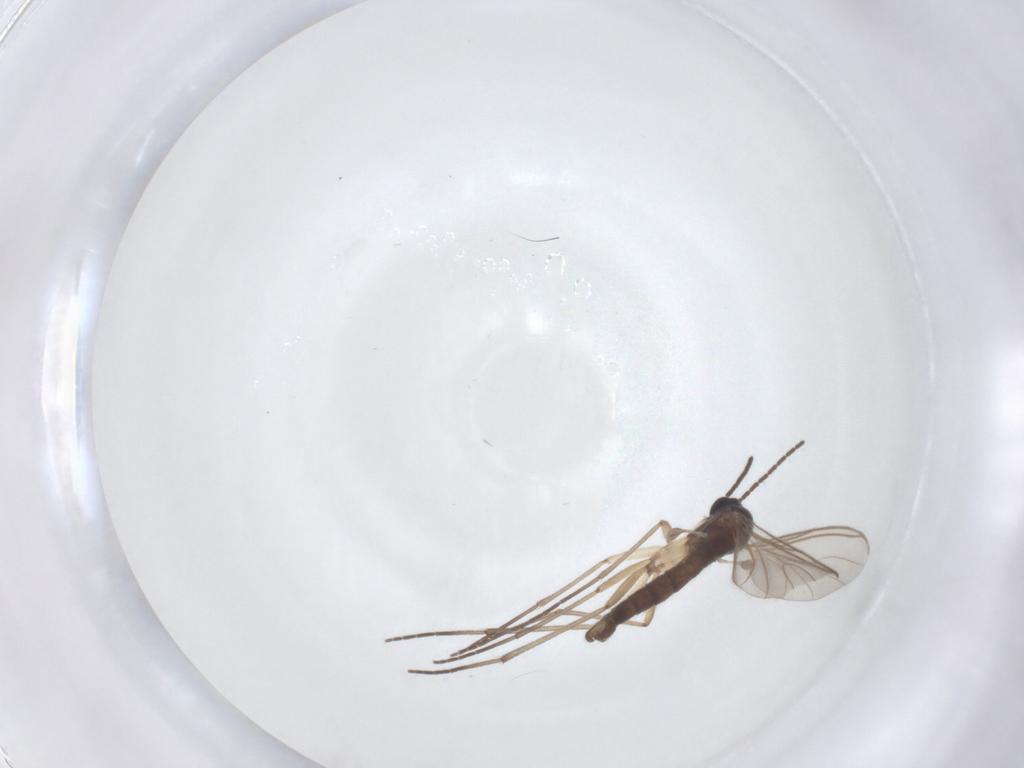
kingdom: Animalia
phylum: Arthropoda
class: Insecta
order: Diptera
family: Sciaridae
